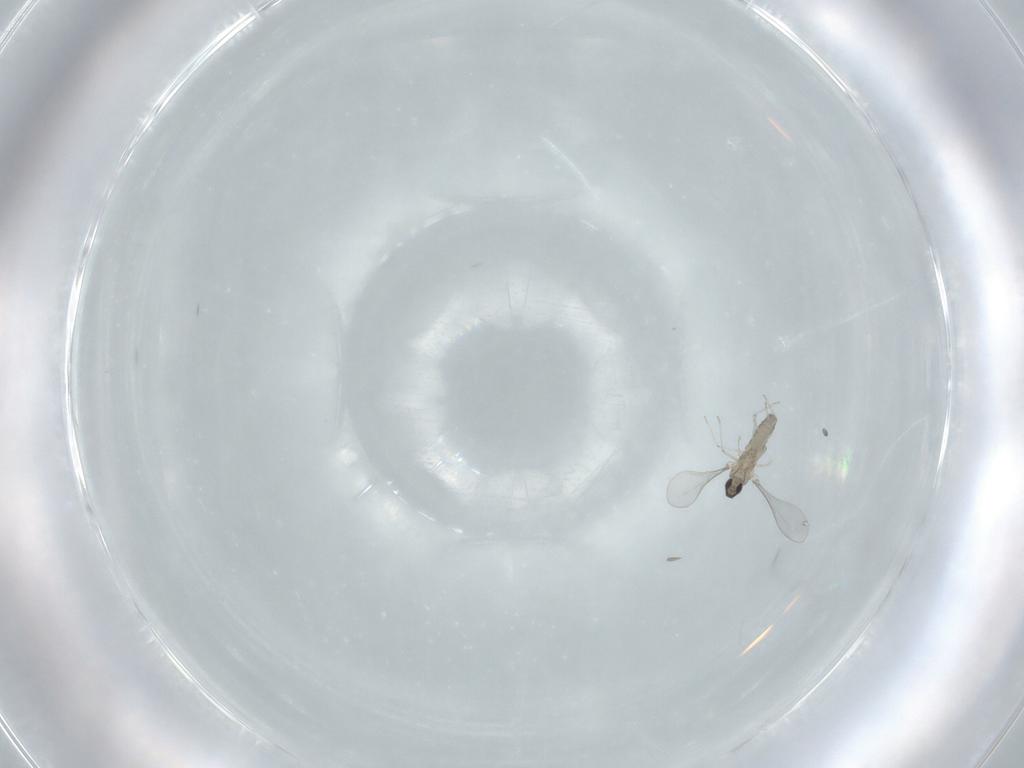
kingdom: Animalia
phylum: Arthropoda
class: Insecta
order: Diptera
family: Cecidomyiidae
